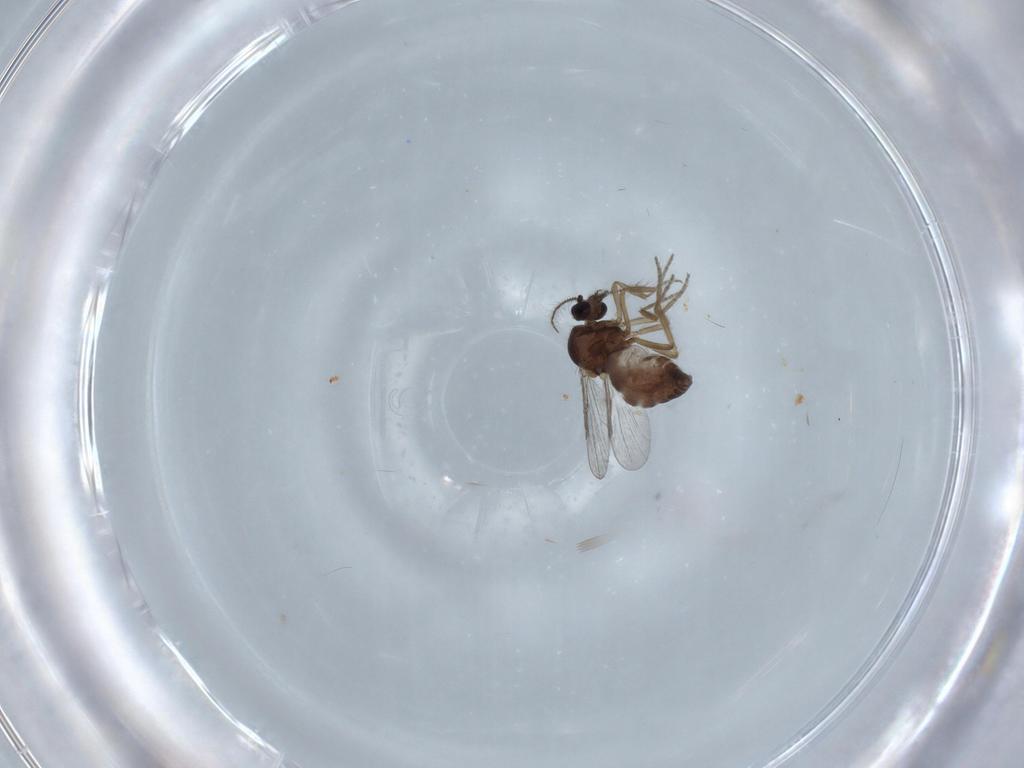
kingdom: Animalia
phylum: Arthropoda
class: Insecta
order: Diptera
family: Ceratopogonidae
